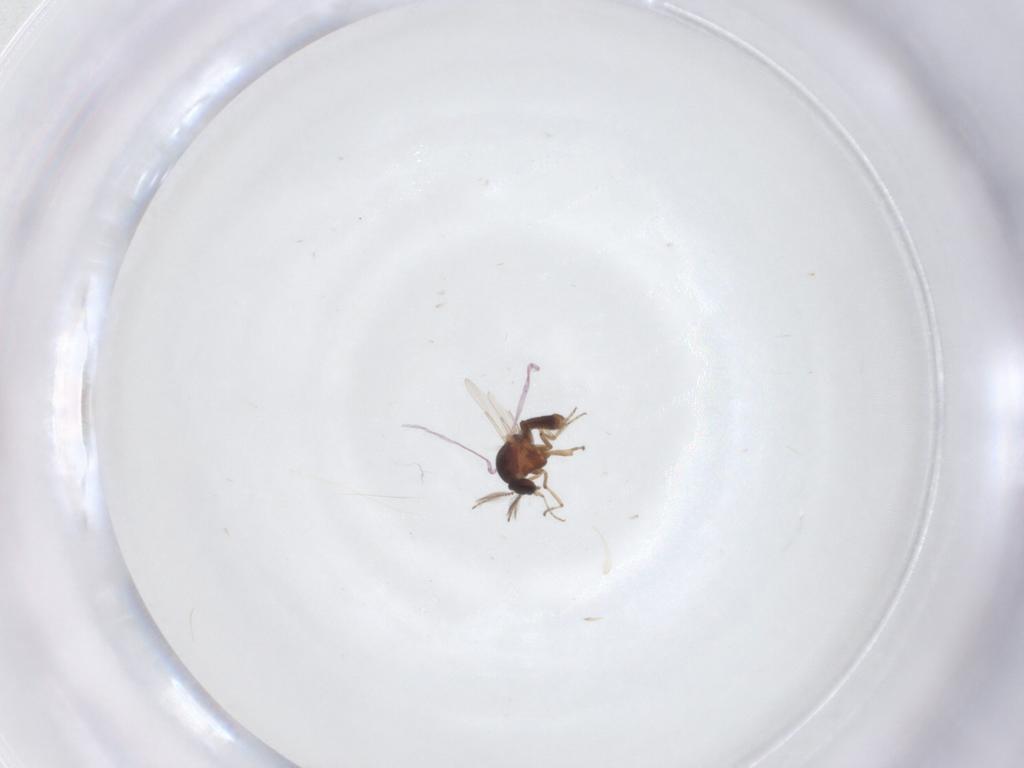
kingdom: Animalia
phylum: Arthropoda
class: Insecta
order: Diptera
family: Ceratopogonidae
